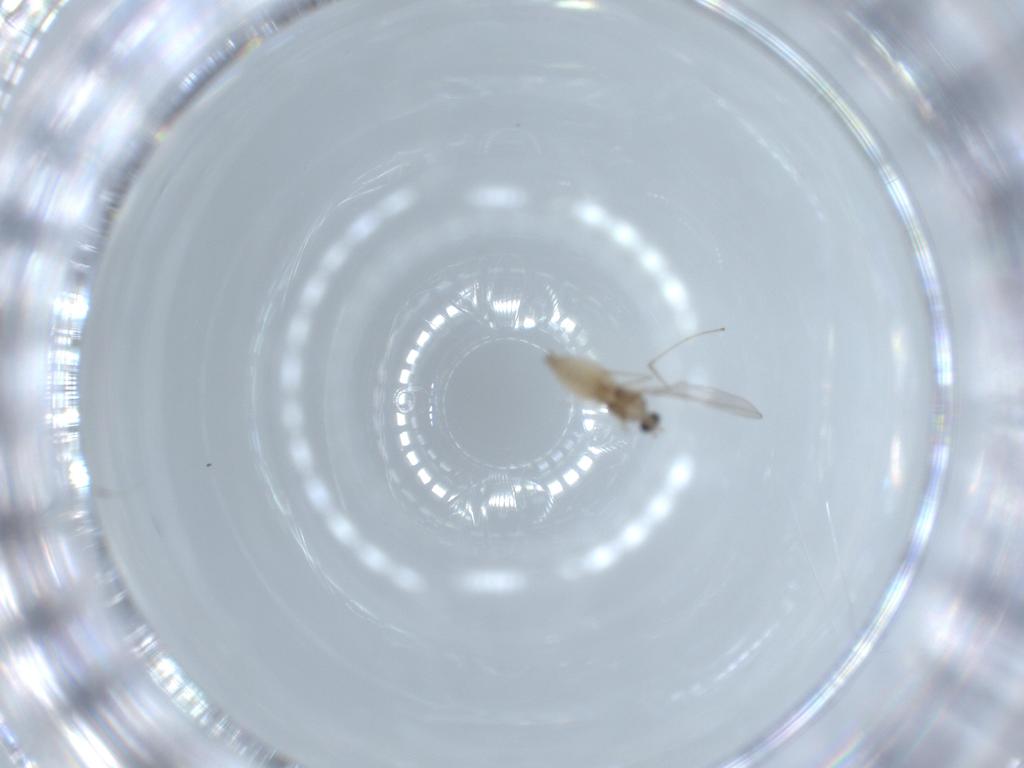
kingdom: Animalia
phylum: Arthropoda
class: Insecta
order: Diptera
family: Cecidomyiidae
